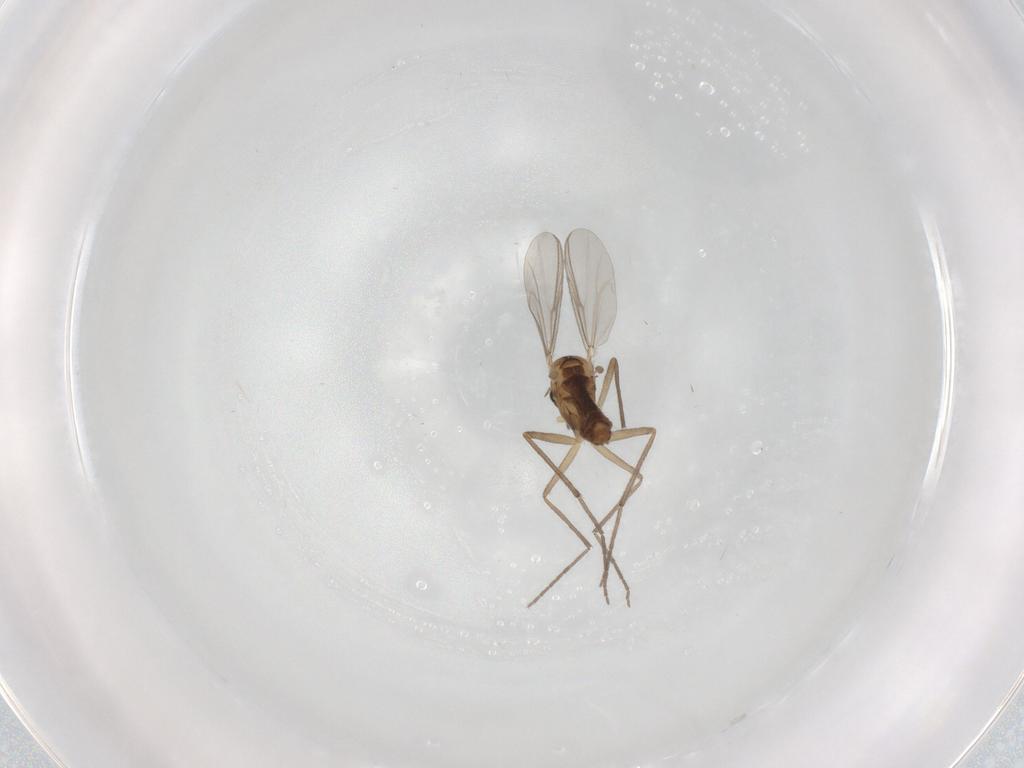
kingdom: Animalia
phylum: Arthropoda
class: Insecta
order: Diptera
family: Chironomidae
